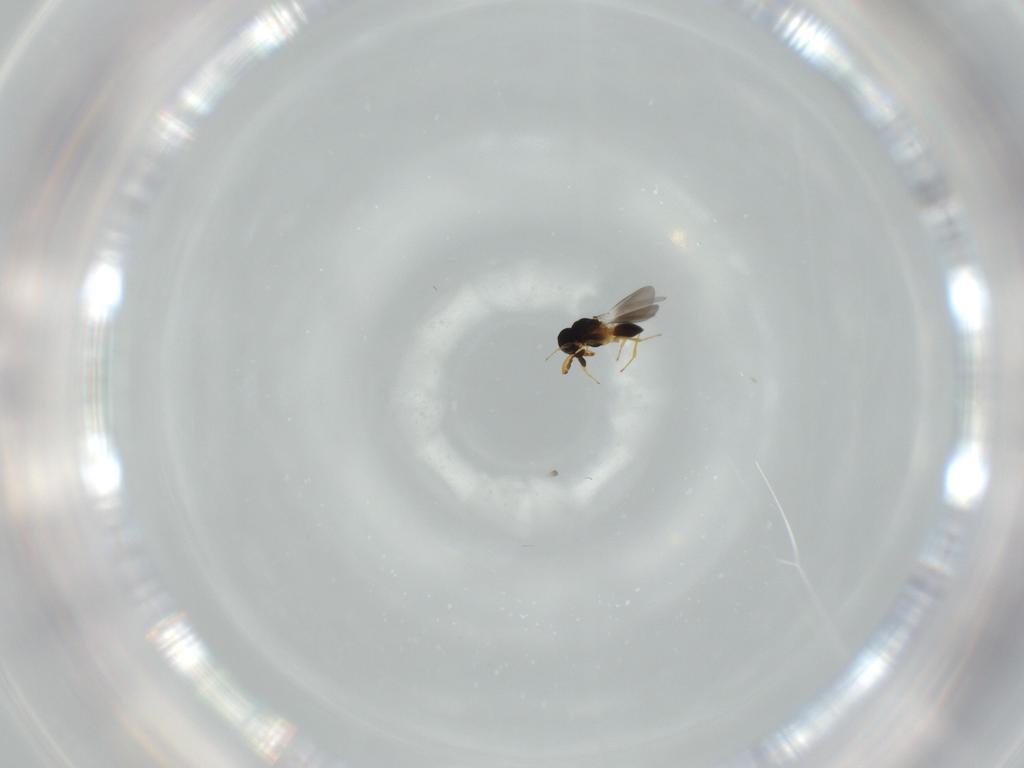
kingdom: Animalia
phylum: Arthropoda
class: Insecta
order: Hymenoptera
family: Platygastridae
